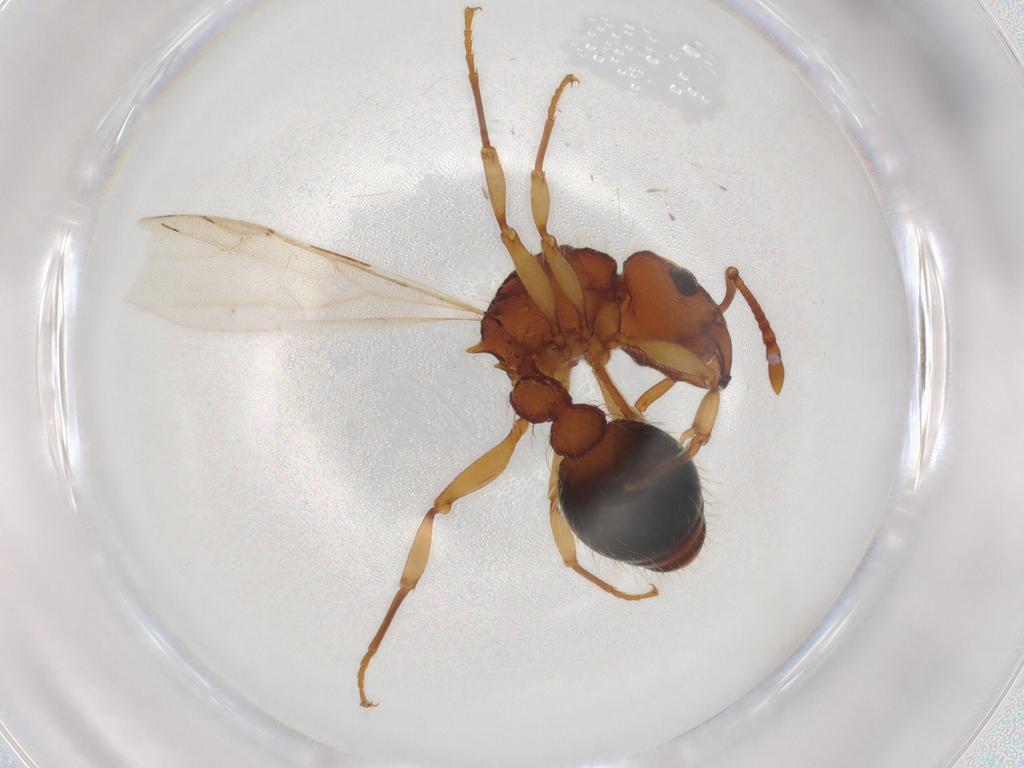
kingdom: Animalia
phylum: Arthropoda
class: Insecta
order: Hymenoptera
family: Formicidae
